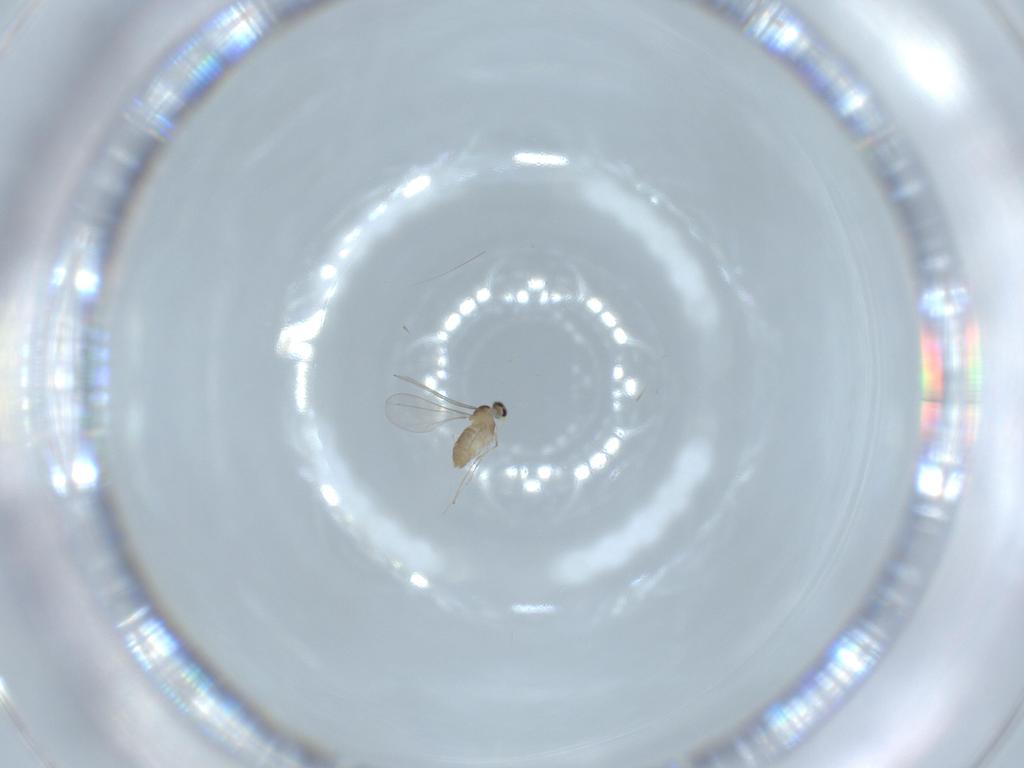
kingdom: Animalia
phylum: Arthropoda
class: Insecta
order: Diptera
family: Cecidomyiidae
